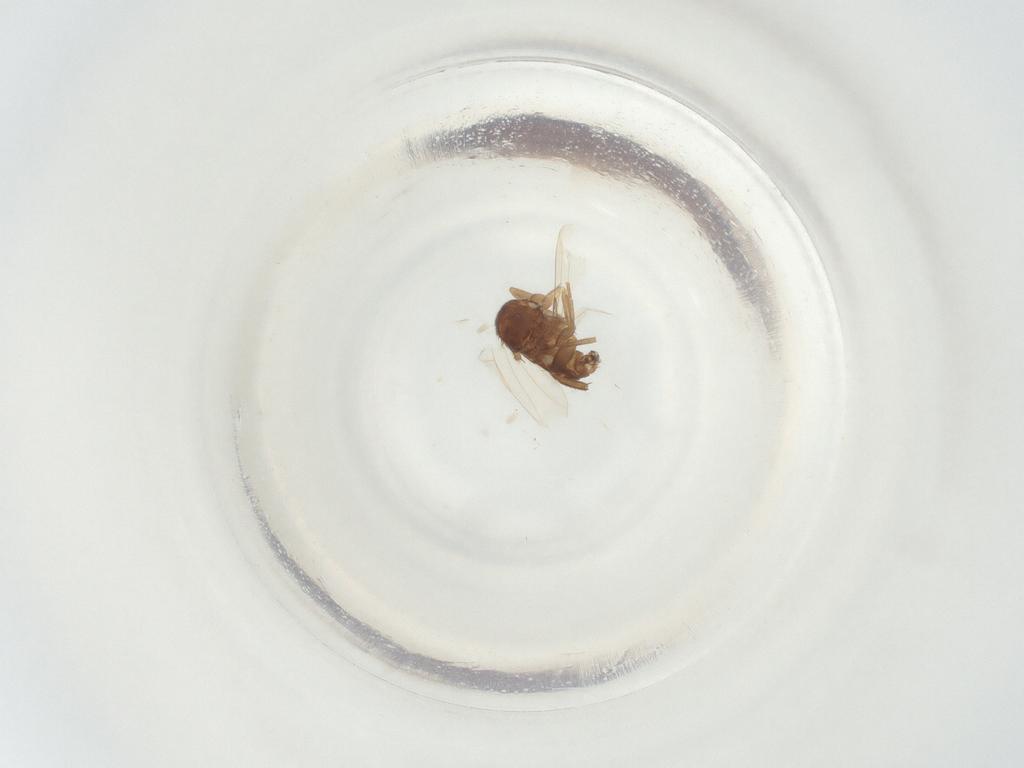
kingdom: Animalia
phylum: Arthropoda
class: Insecta
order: Diptera
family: Phoridae
